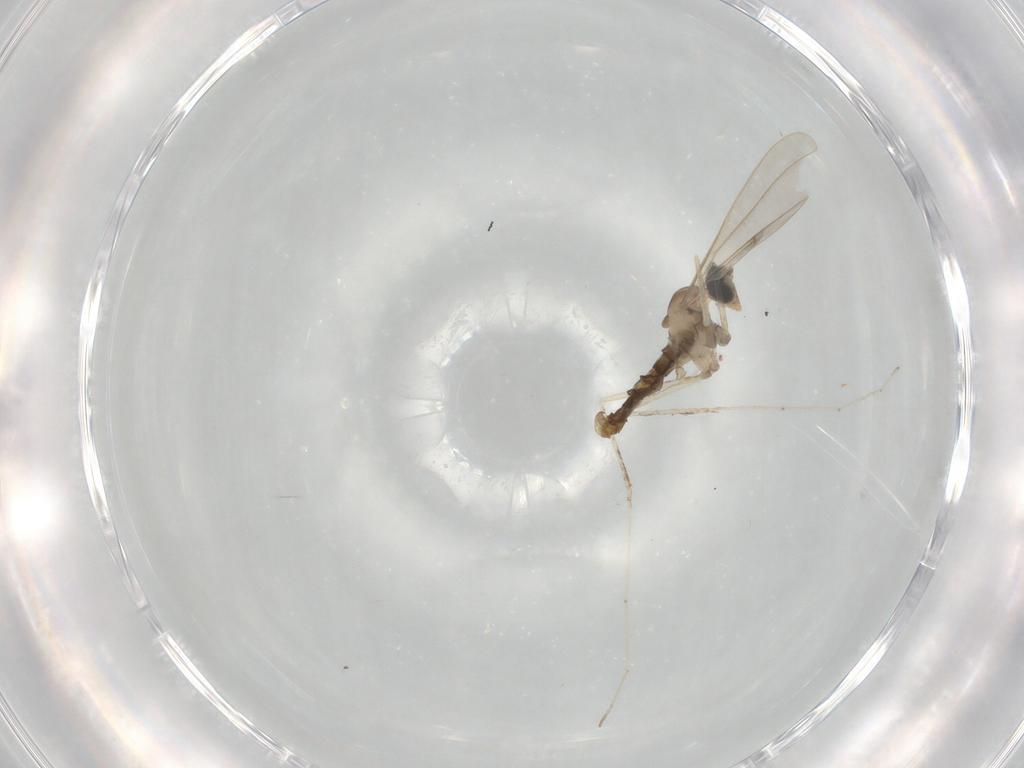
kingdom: Animalia
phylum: Arthropoda
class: Insecta
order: Diptera
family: Cecidomyiidae
